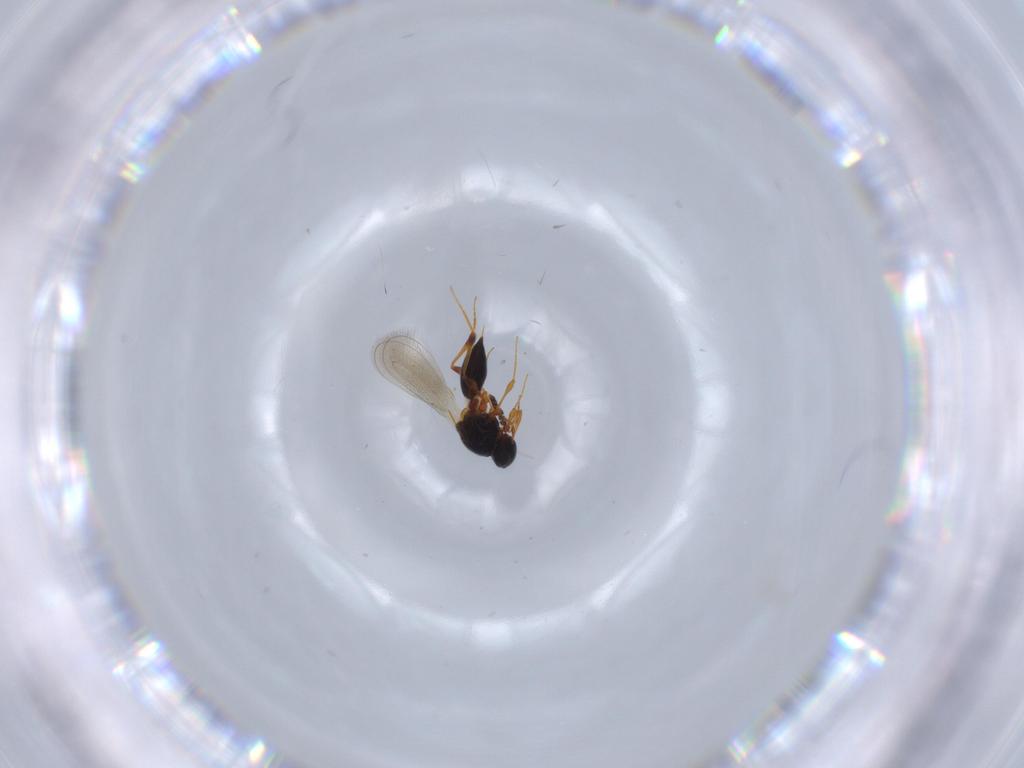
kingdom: Animalia
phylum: Arthropoda
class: Insecta
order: Hymenoptera
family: Platygastridae
